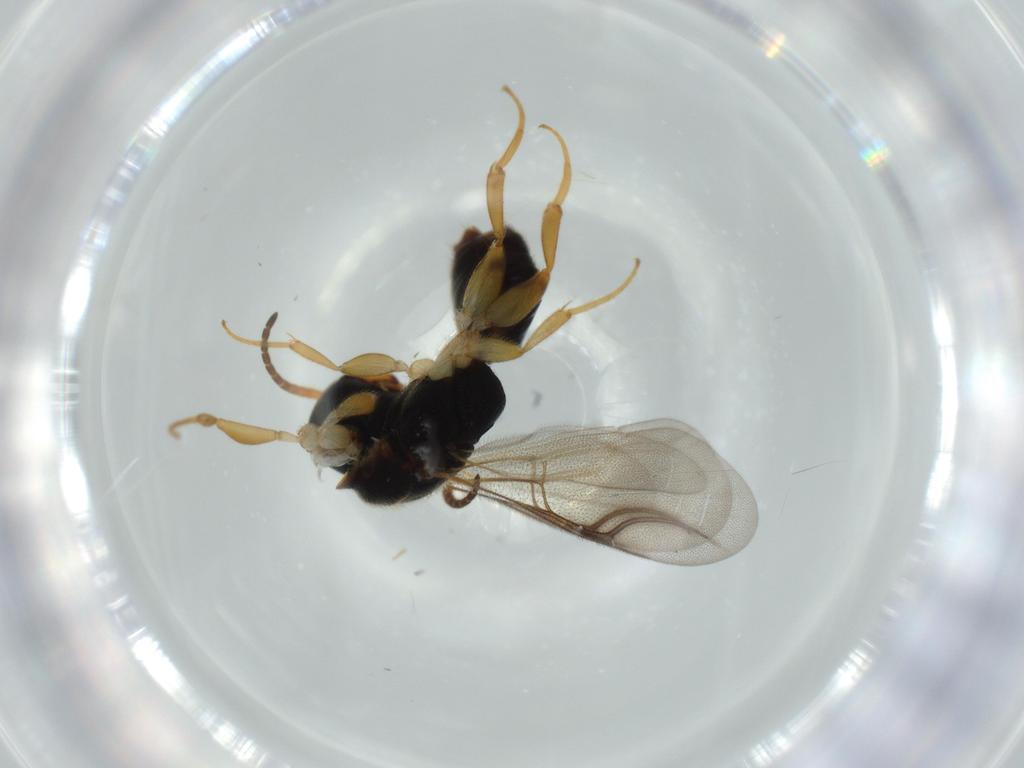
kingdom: Animalia
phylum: Arthropoda
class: Insecta
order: Hymenoptera
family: Bethylidae
